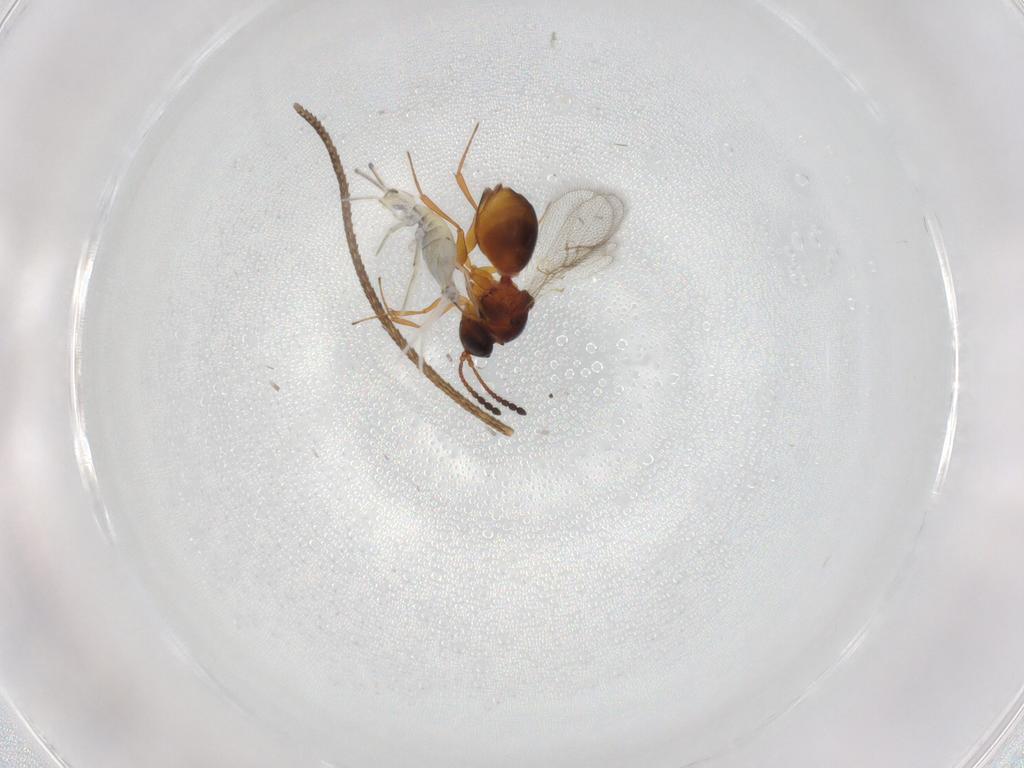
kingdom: Animalia
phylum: Arthropoda
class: Insecta
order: Hymenoptera
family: Figitidae
